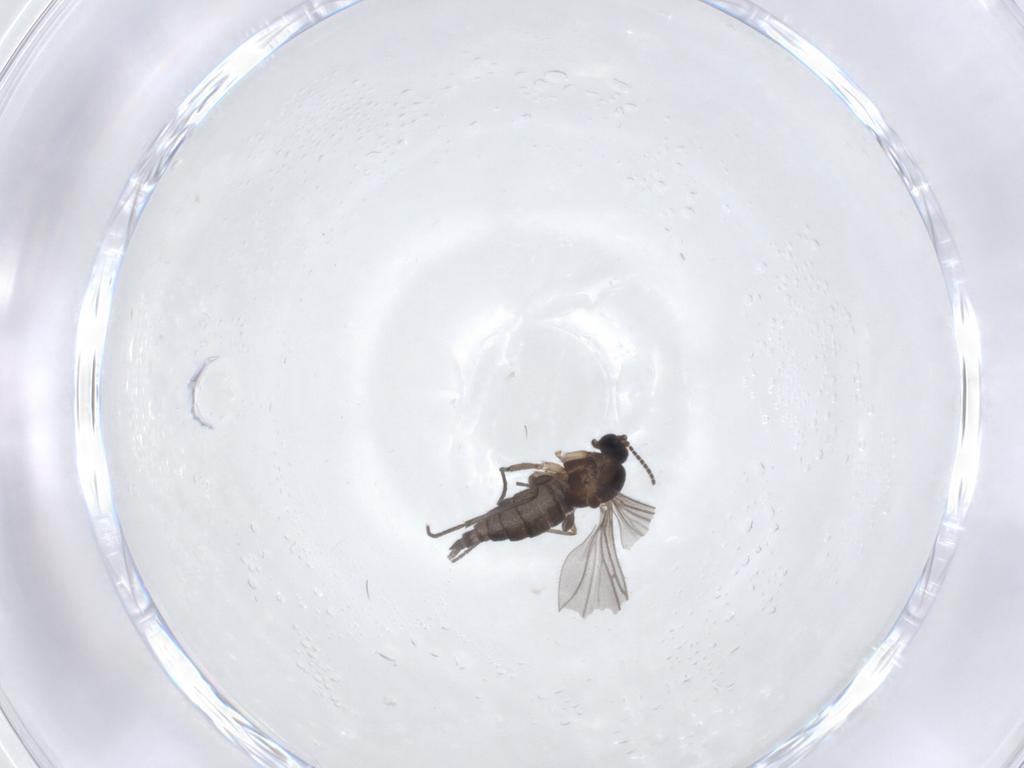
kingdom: Animalia
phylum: Arthropoda
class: Insecta
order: Diptera
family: Sciaridae
